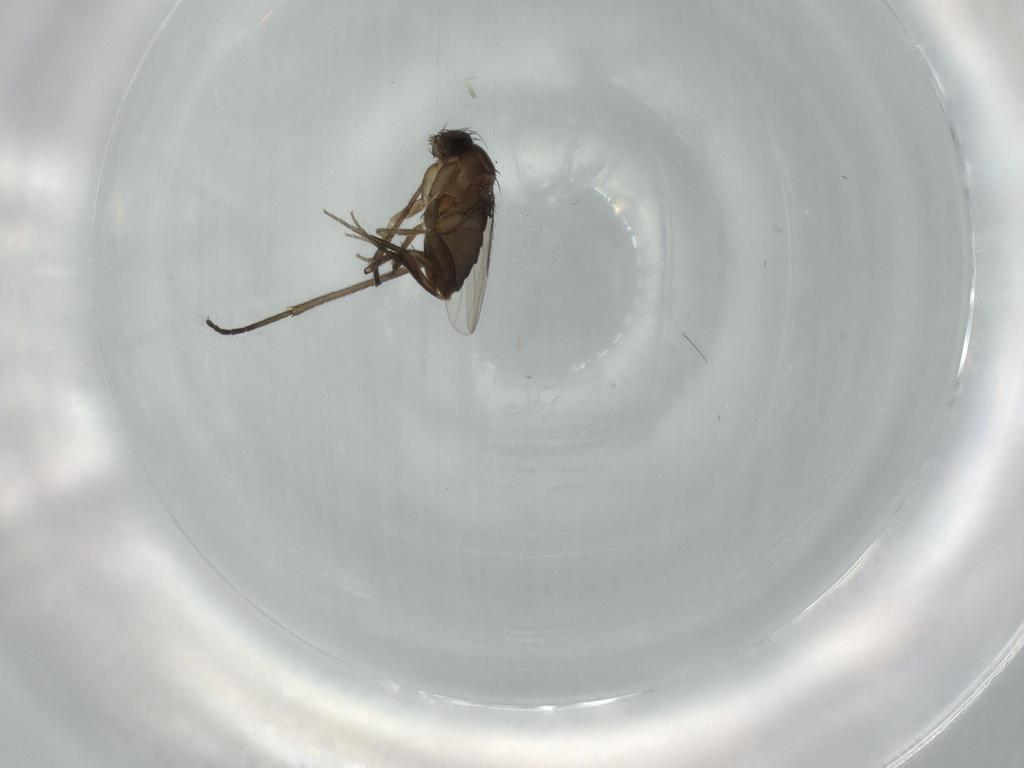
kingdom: Animalia
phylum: Arthropoda
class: Insecta
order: Diptera
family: Phoridae
